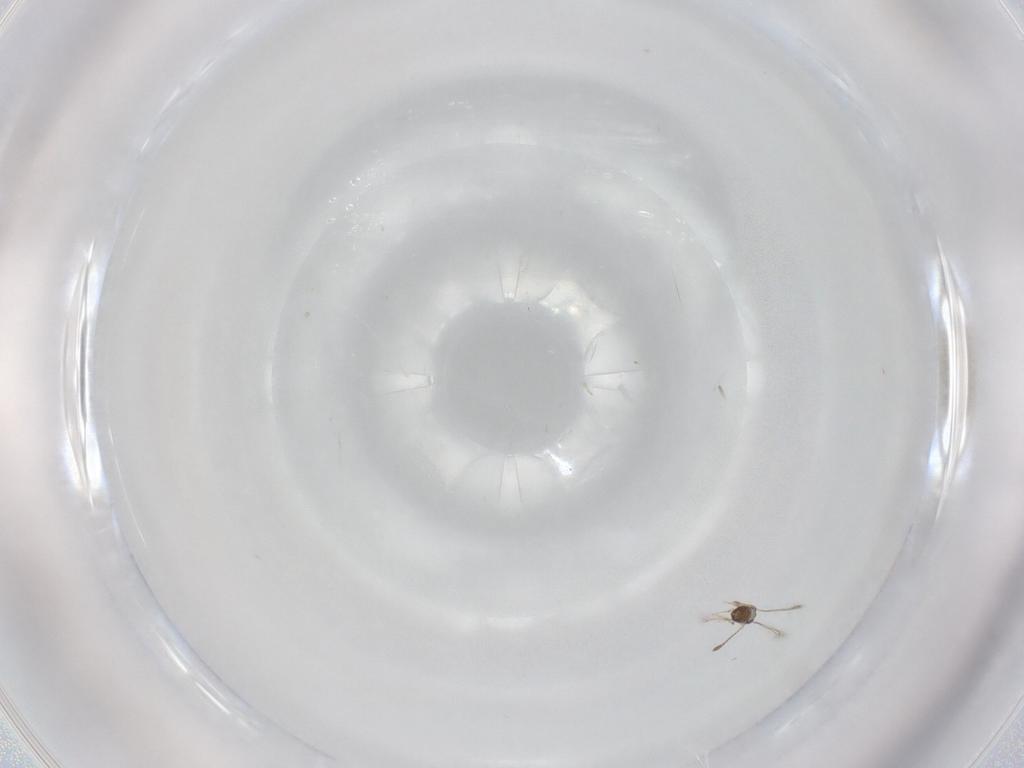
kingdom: Animalia
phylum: Arthropoda
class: Insecta
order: Hymenoptera
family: Mymaridae
